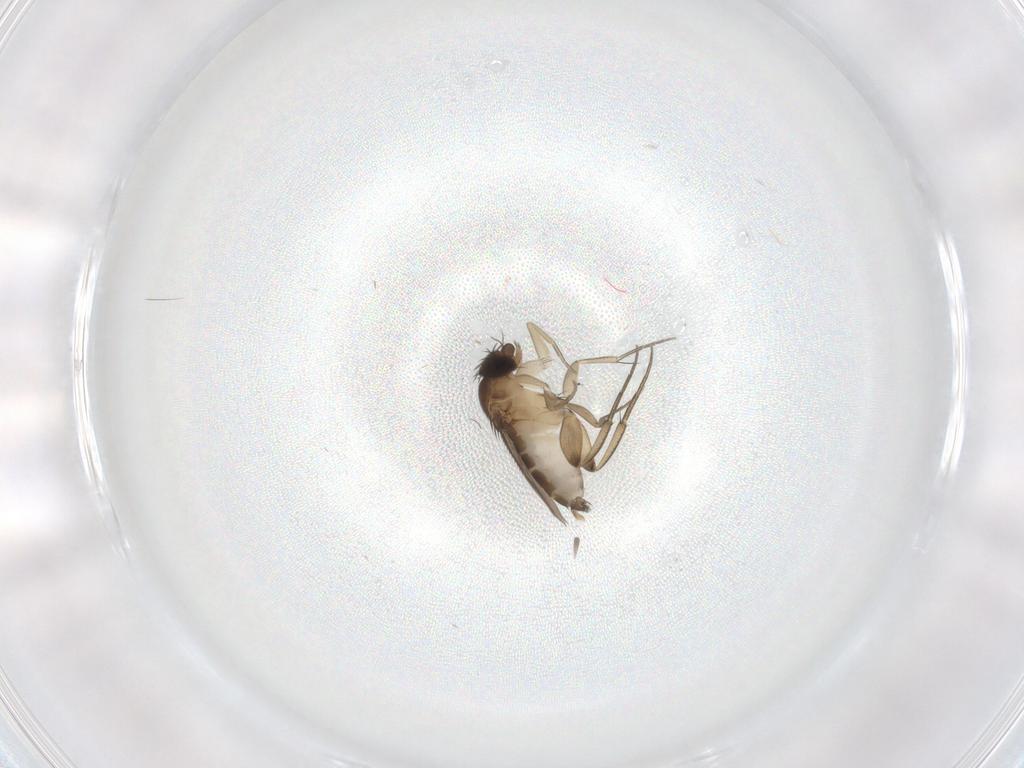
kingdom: Animalia
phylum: Arthropoda
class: Insecta
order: Diptera
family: Phoridae
